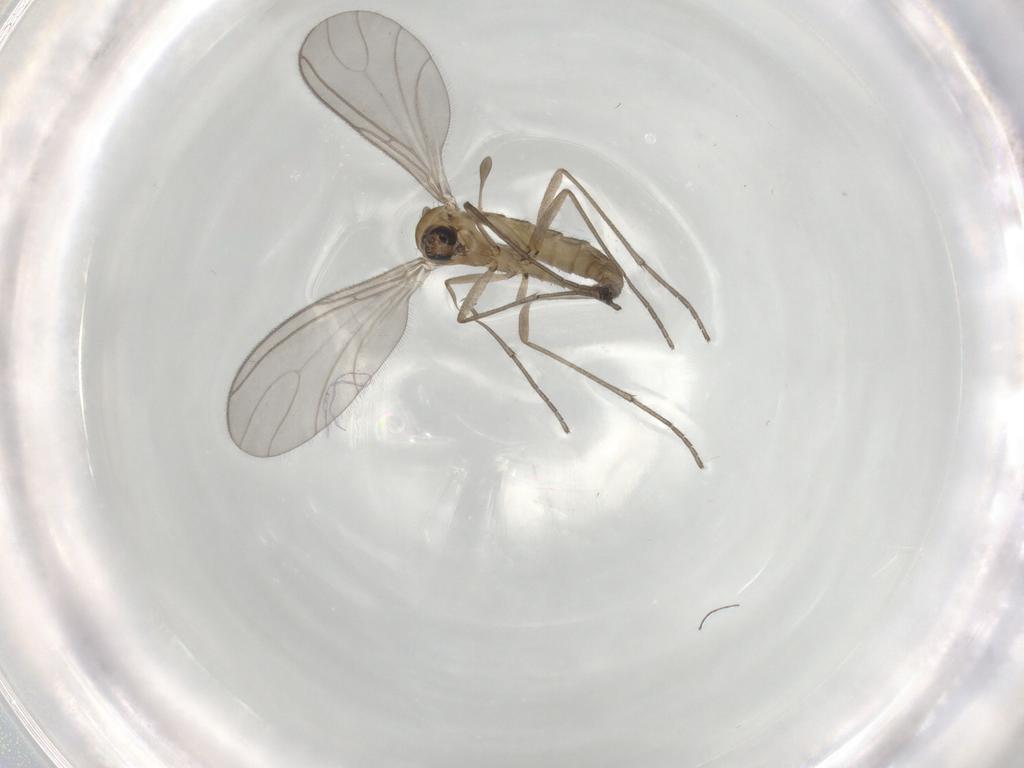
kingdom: Animalia
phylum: Arthropoda
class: Insecta
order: Diptera
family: Sciaridae
